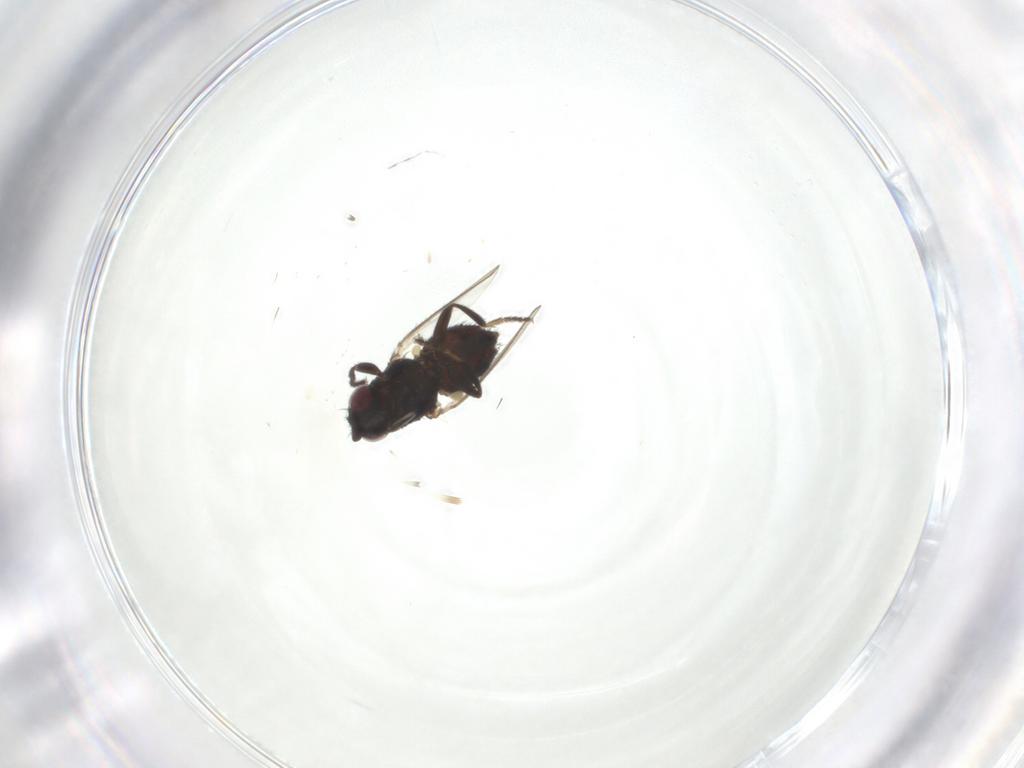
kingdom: Animalia
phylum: Arthropoda
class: Insecta
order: Diptera
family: Milichiidae
